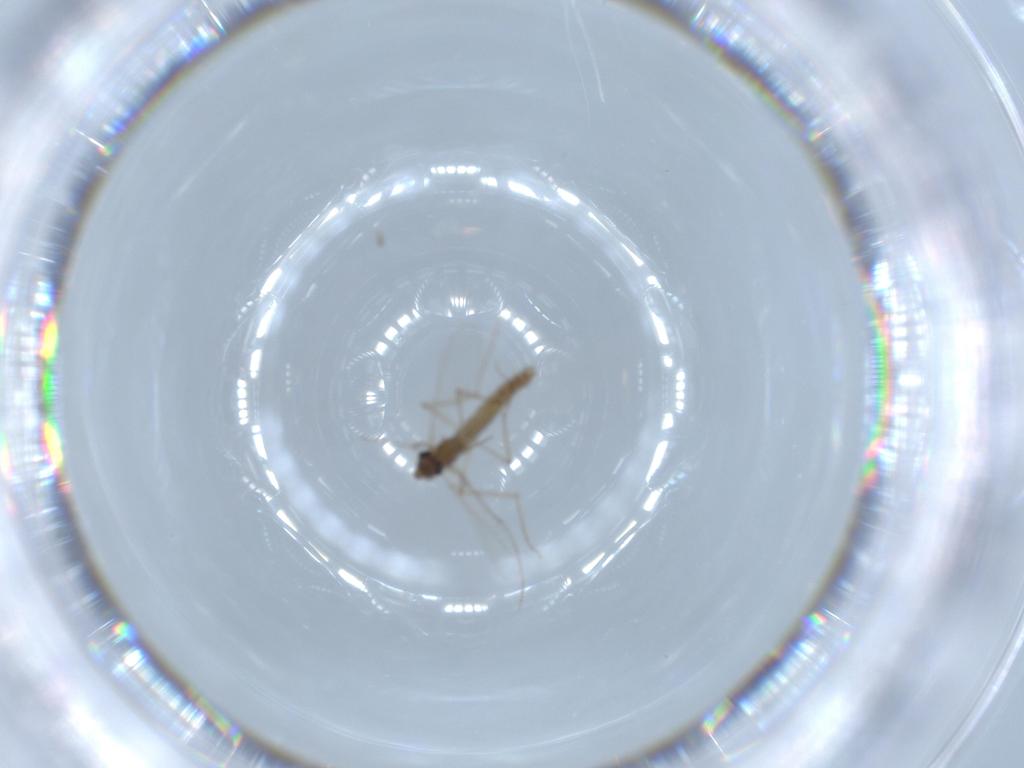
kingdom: Animalia
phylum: Arthropoda
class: Insecta
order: Diptera
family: Chironomidae
